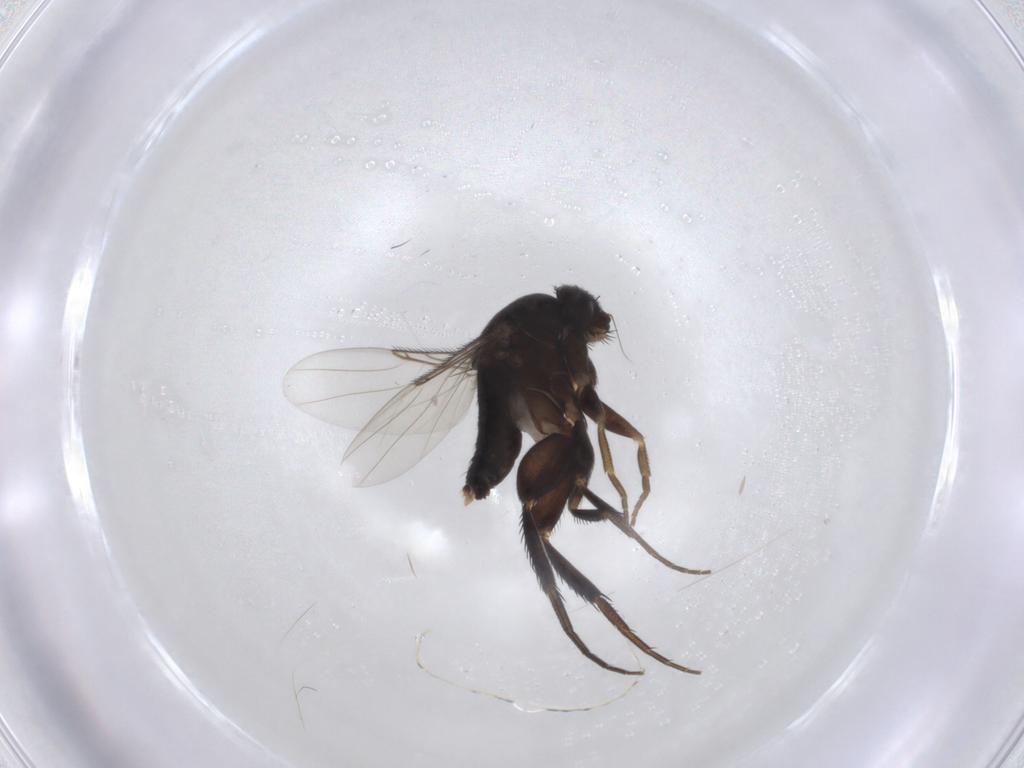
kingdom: Animalia
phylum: Arthropoda
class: Insecta
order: Diptera
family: Phoridae
